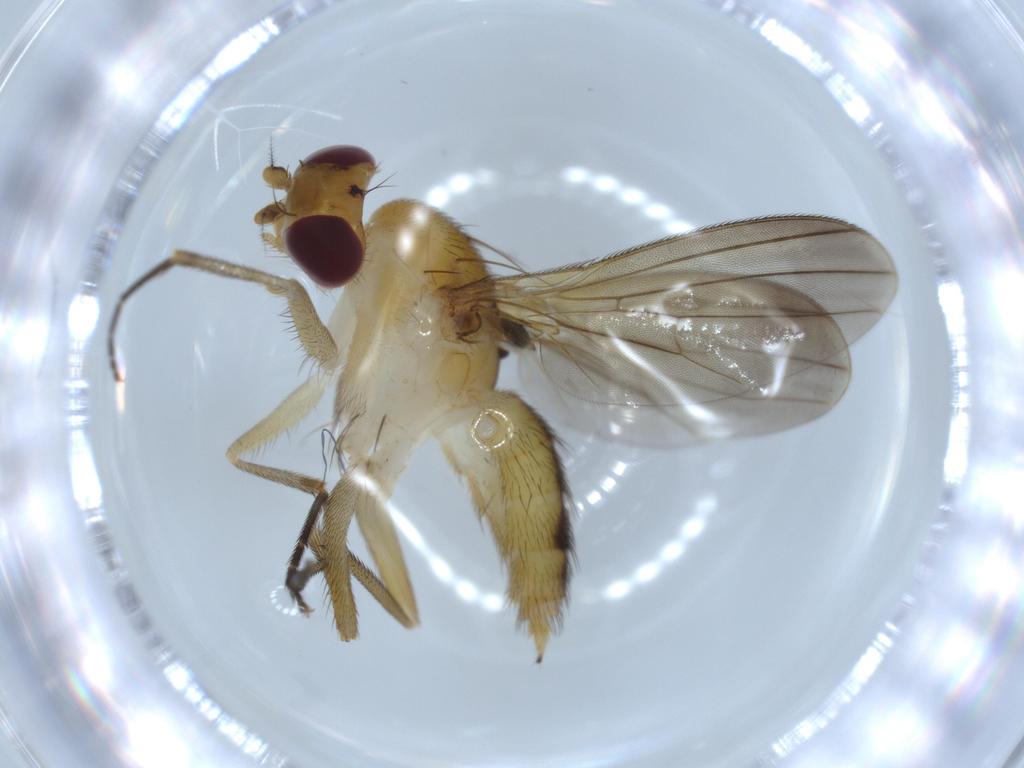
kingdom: Animalia
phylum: Arthropoda
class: Insecta
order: Diptera
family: Clusiidae
